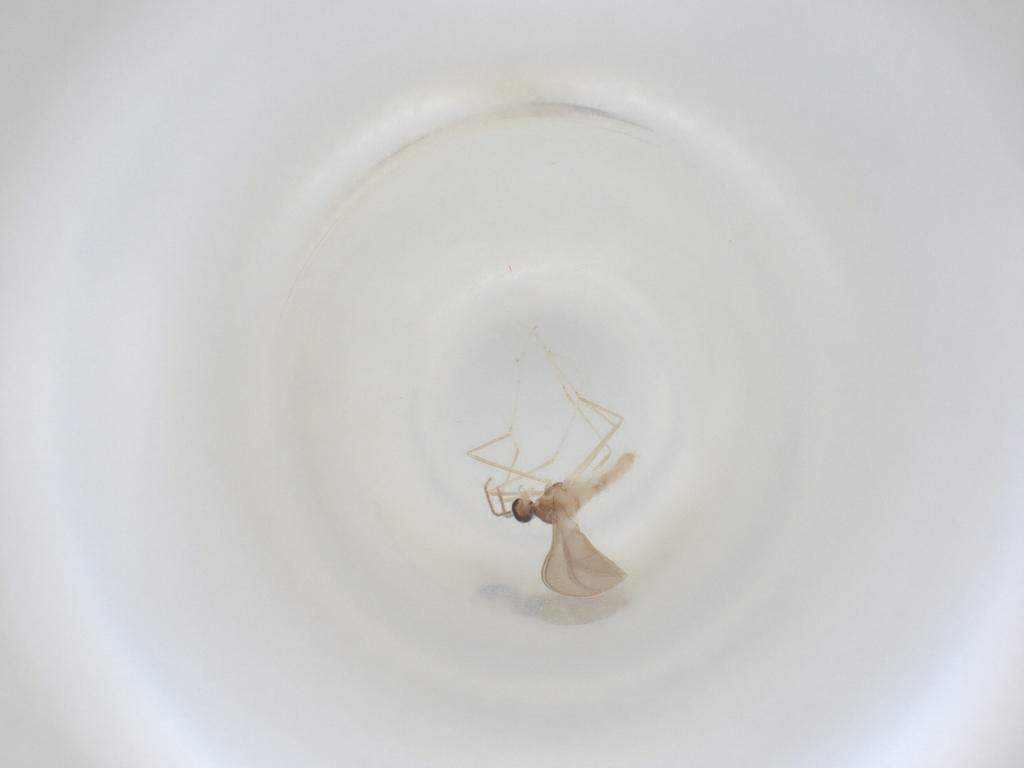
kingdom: Animalia
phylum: Arthropoda
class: Insecta
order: Diptera
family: Cecidomyiidae
